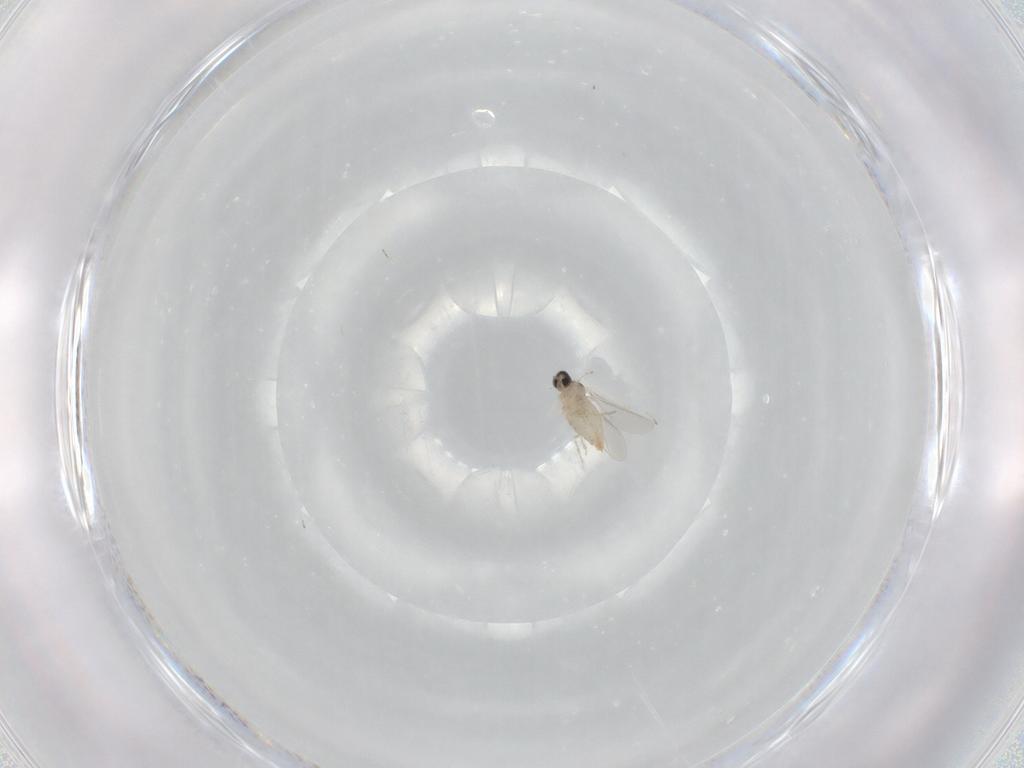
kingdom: Animalia
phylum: Arthropoda
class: Insecta
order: Diptera
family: Cecidomyiidae
